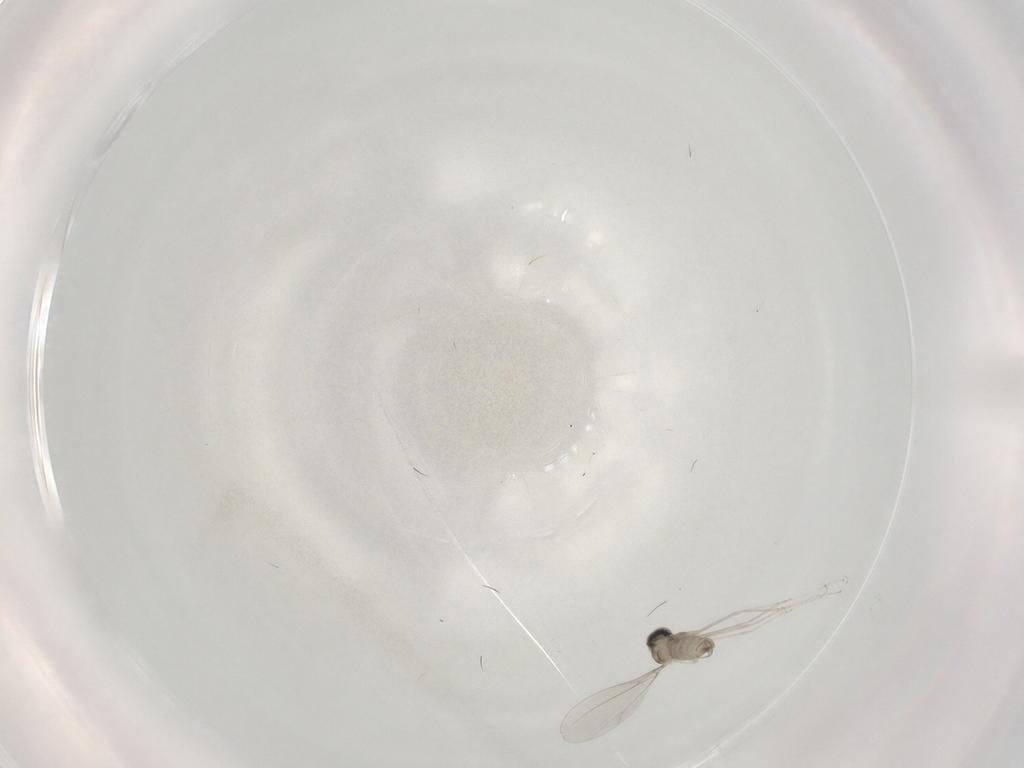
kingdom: Animalia
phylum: Arthropoda
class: Insecta
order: Diptera
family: Cecidomyiidae
